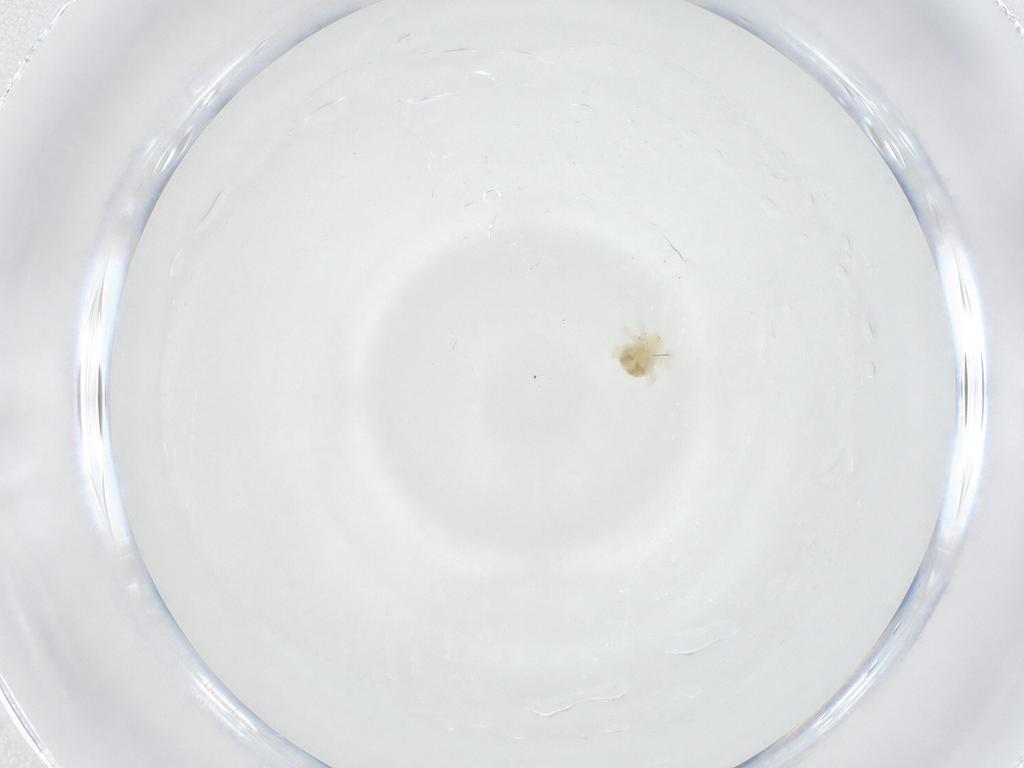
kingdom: Animalia
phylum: Arthropoda
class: Arachnida
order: Trombidiformes
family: Anystidae
